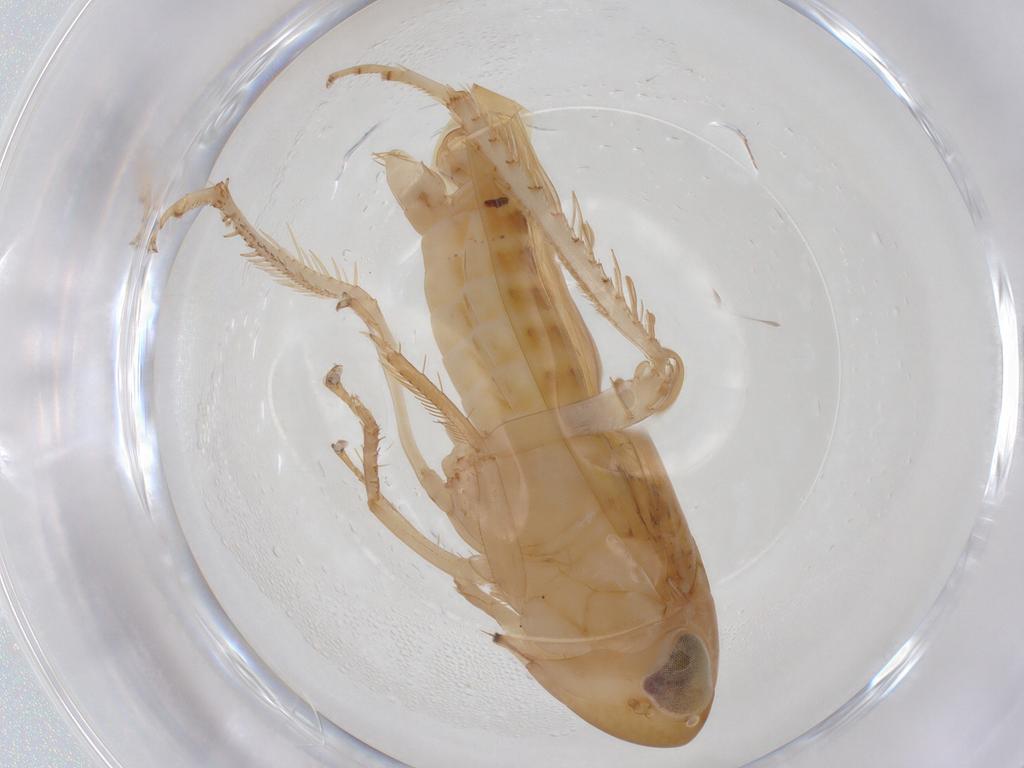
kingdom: Animalia
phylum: Arthropoda
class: Insecta
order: Hemiptera
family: Cicadellidae
